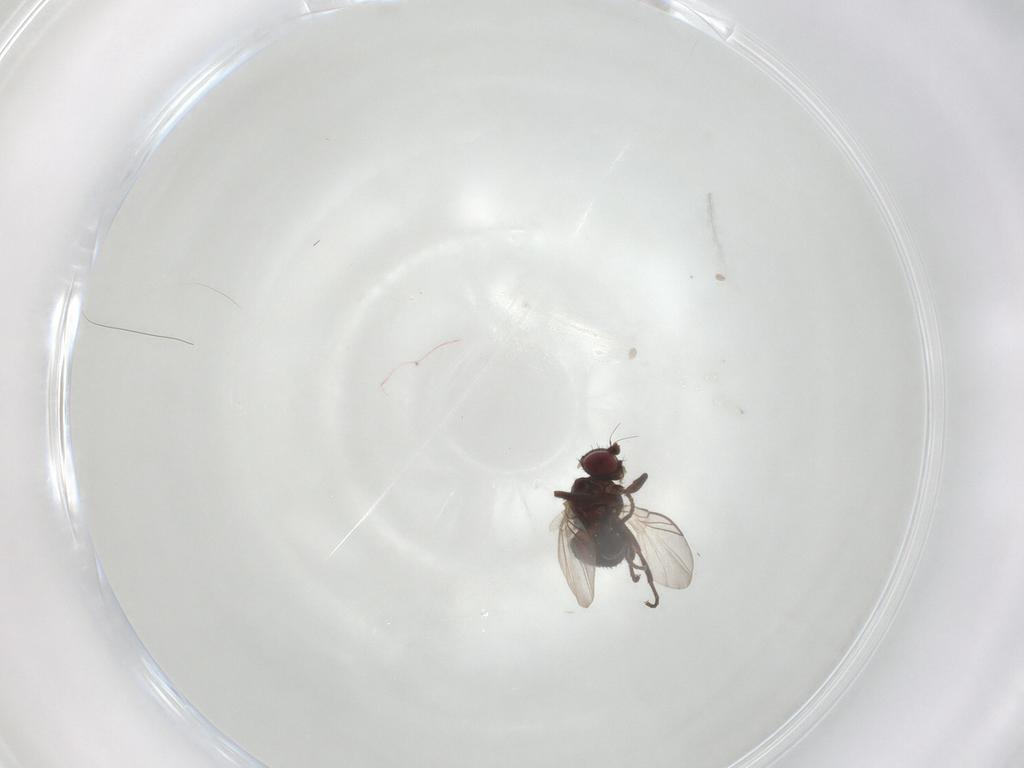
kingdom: Animalia
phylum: Arthropoda
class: Insecta
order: Diptera
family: Agromyzidae
